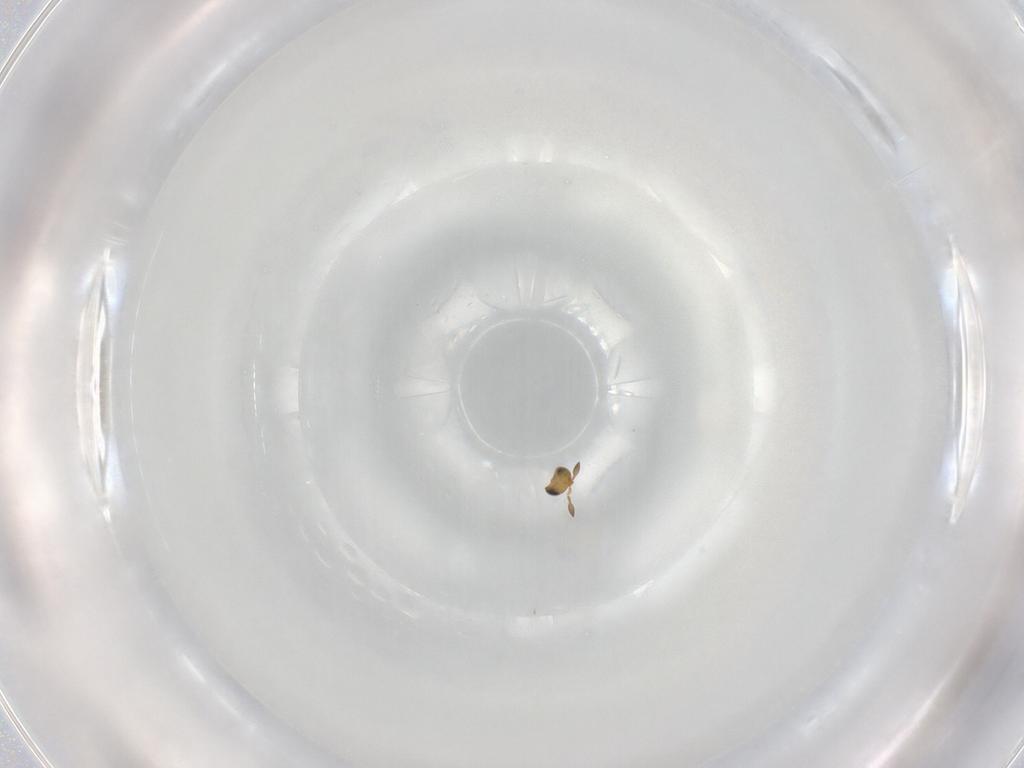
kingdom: Animalia
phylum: Arthropoda
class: Insecta
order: Hymenoptera
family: Scelionidae
